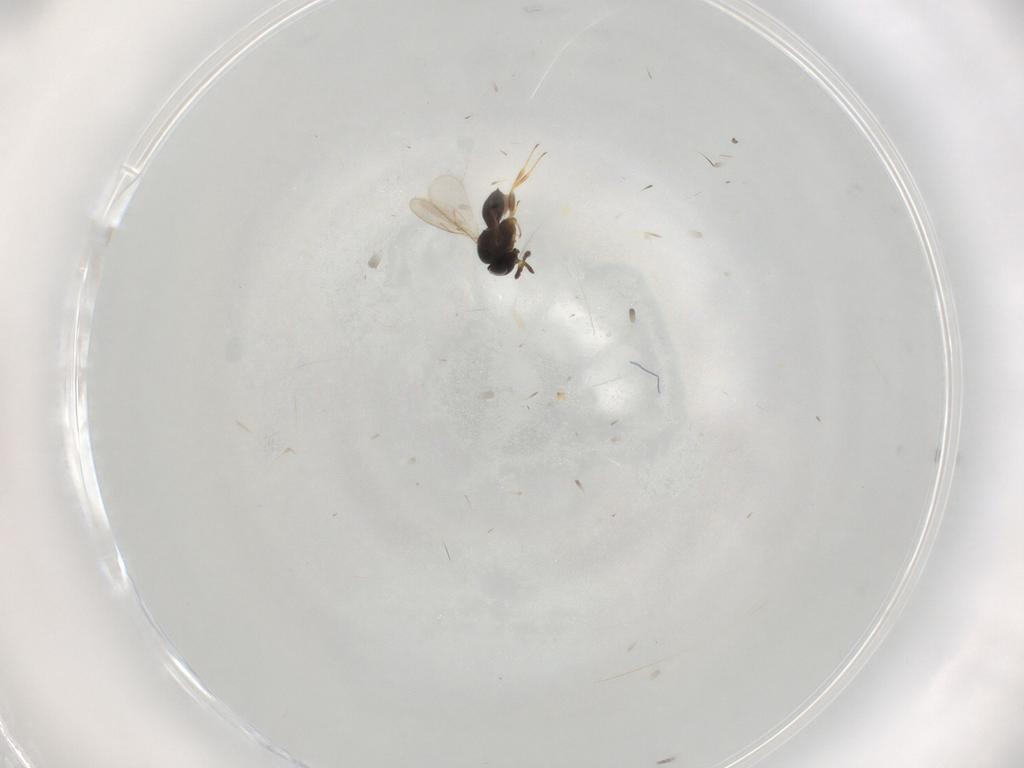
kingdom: Animalia
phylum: Arthropoda
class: Insecta
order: Hymenoptera
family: Scelionidae
